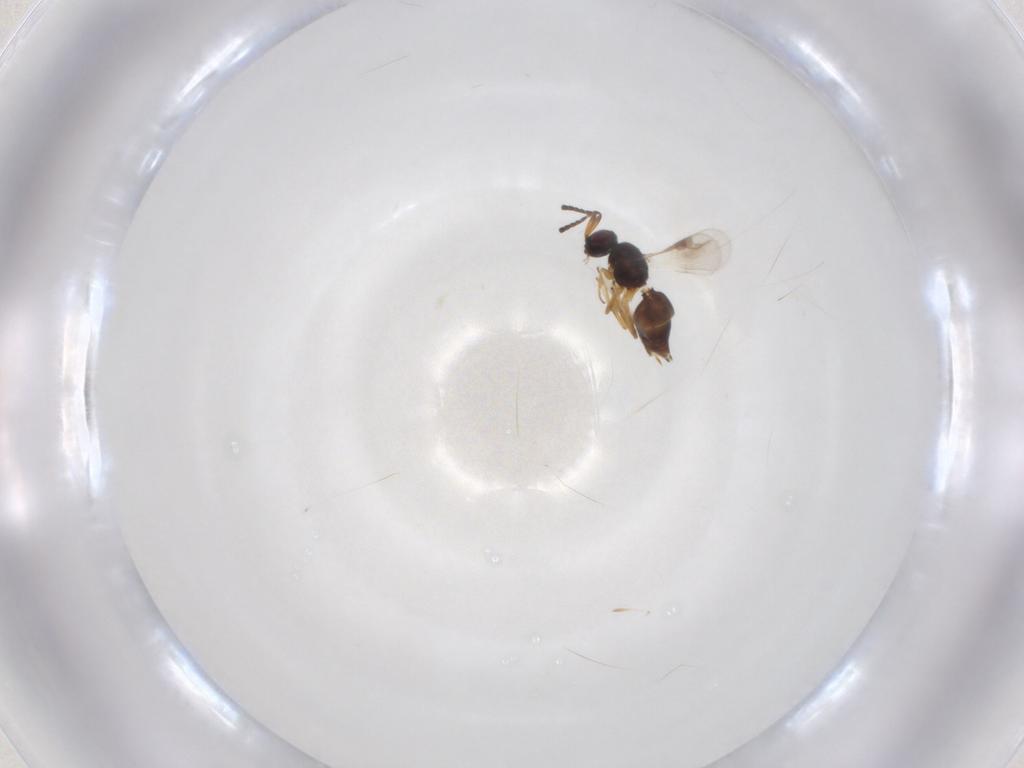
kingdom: Animalia
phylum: Arthropoda
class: Insecta
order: Hymenoptera
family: Megaspilidae
